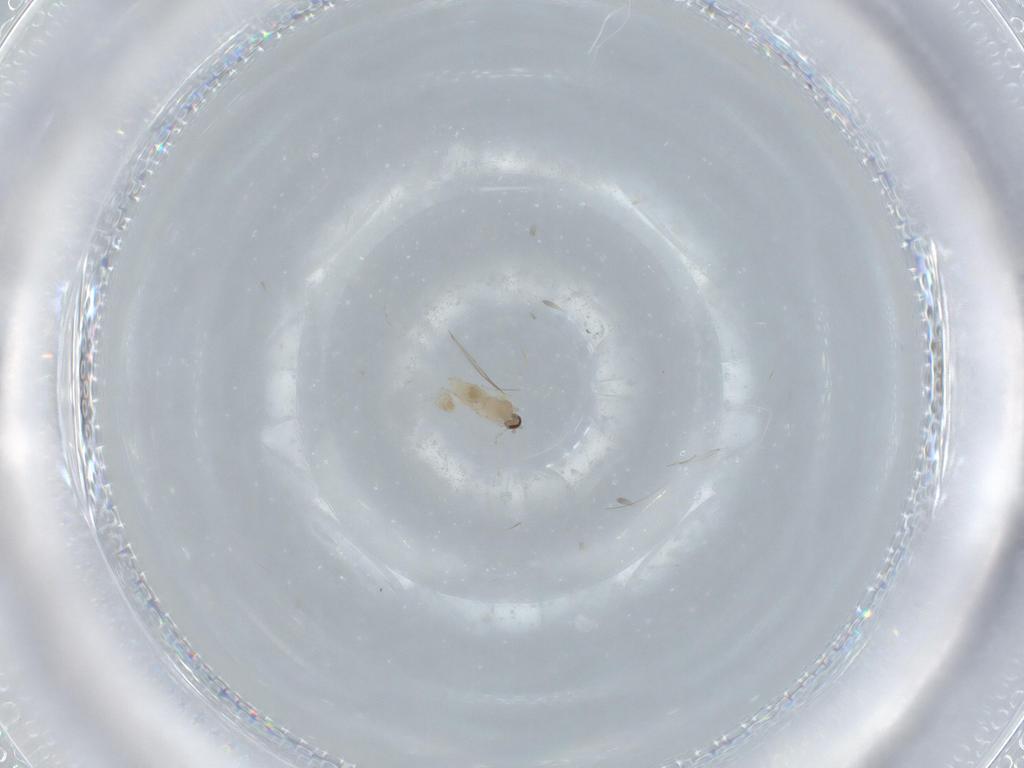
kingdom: Animalia
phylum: Arthropoda
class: Insecta
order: Diptera
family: Cecidomyiidae
